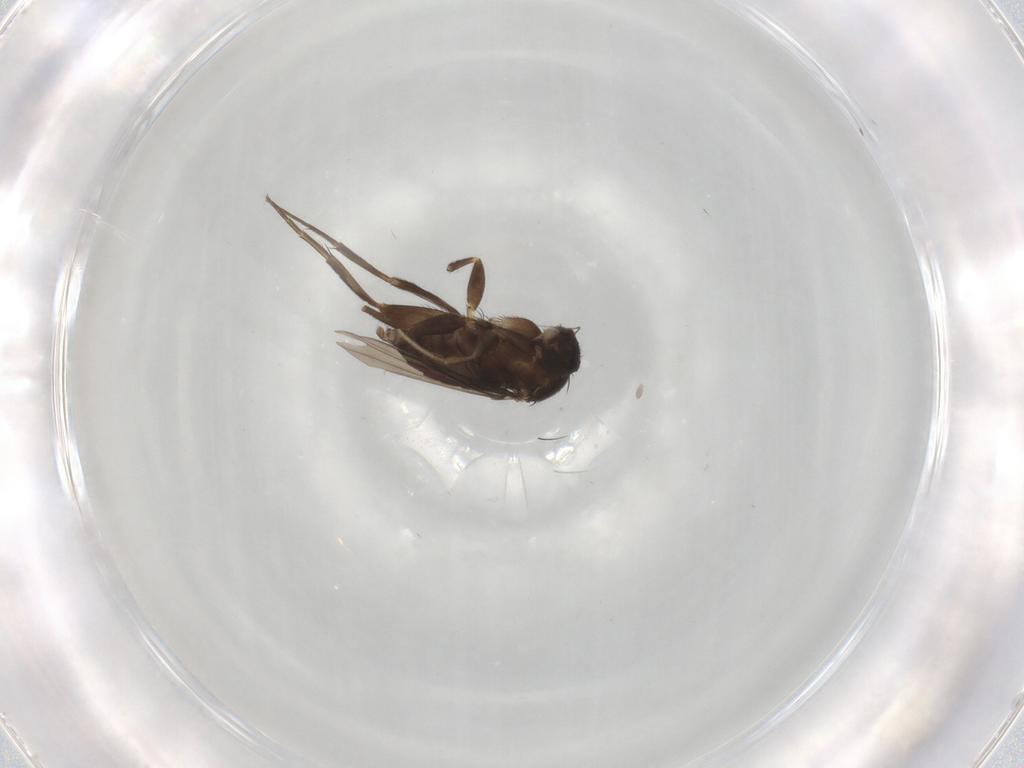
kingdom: Animalia
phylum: Arthropoda
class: Insecta
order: Diptera
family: Phoridae
